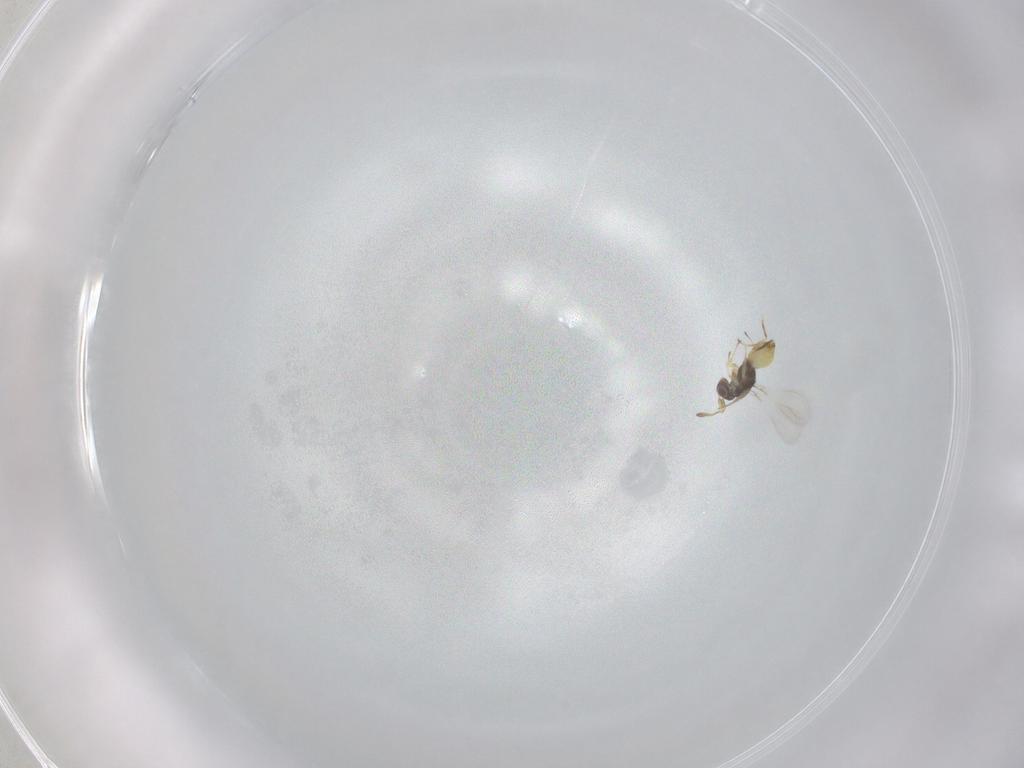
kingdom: Animalia
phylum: Arthropoda
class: Insecta
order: Hymenoptera
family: Mymaridae
